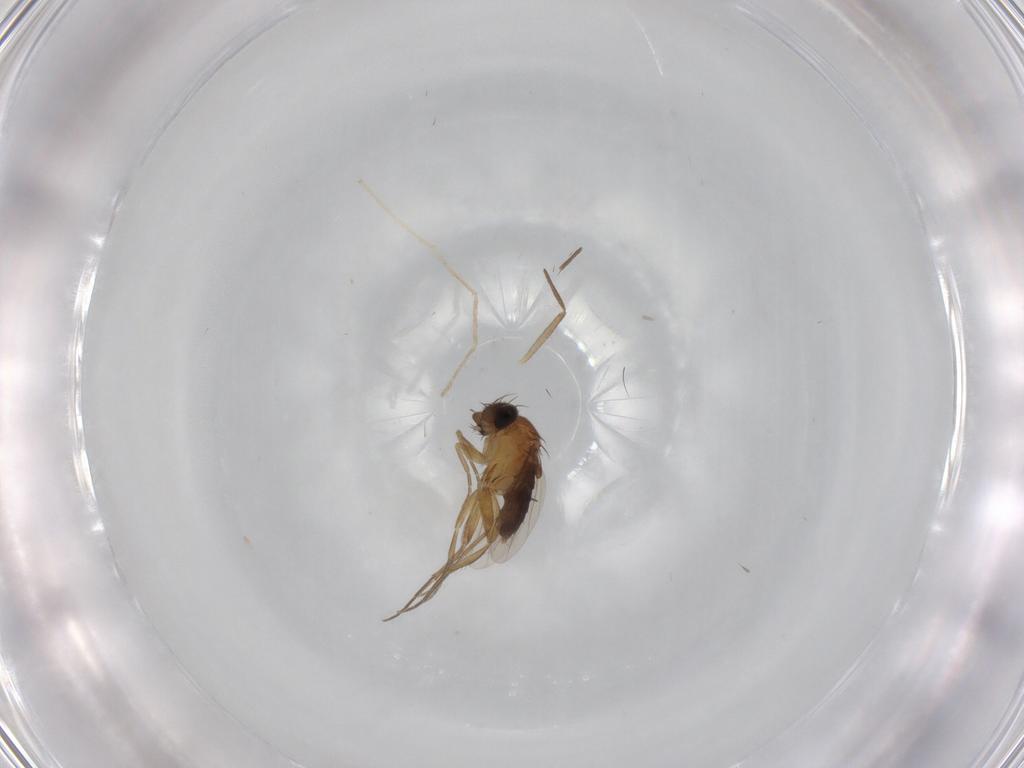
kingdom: Animalia
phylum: Arthropoda
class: Insecta
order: Diptera
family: Phoridae
